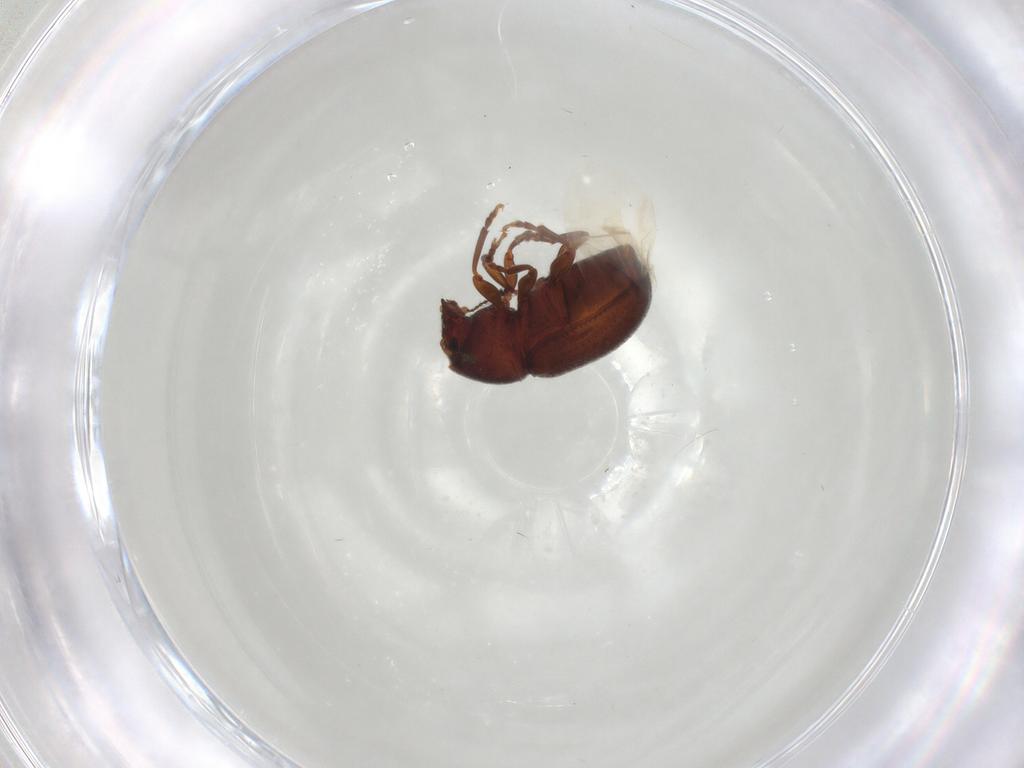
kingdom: Animalia
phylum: Arthropoda
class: Insecta
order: Coleoptera
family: Anthribidae
